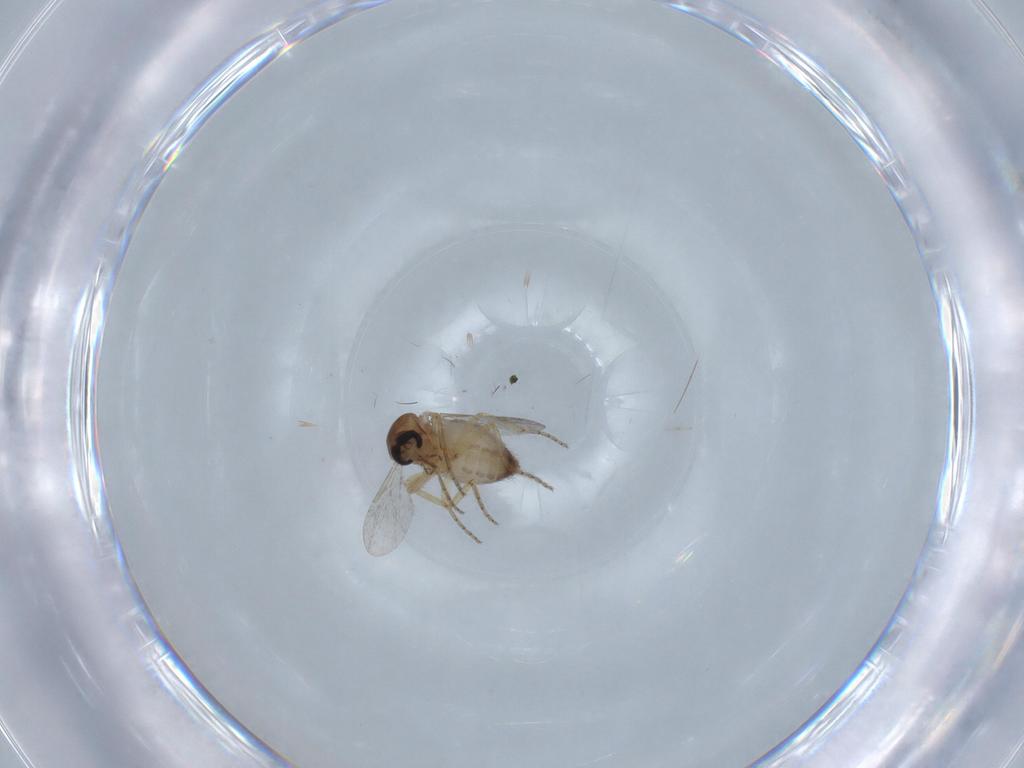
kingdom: Animalia
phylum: Arthropoda
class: Insecta
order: Diptera
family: Ceratopogonidae
